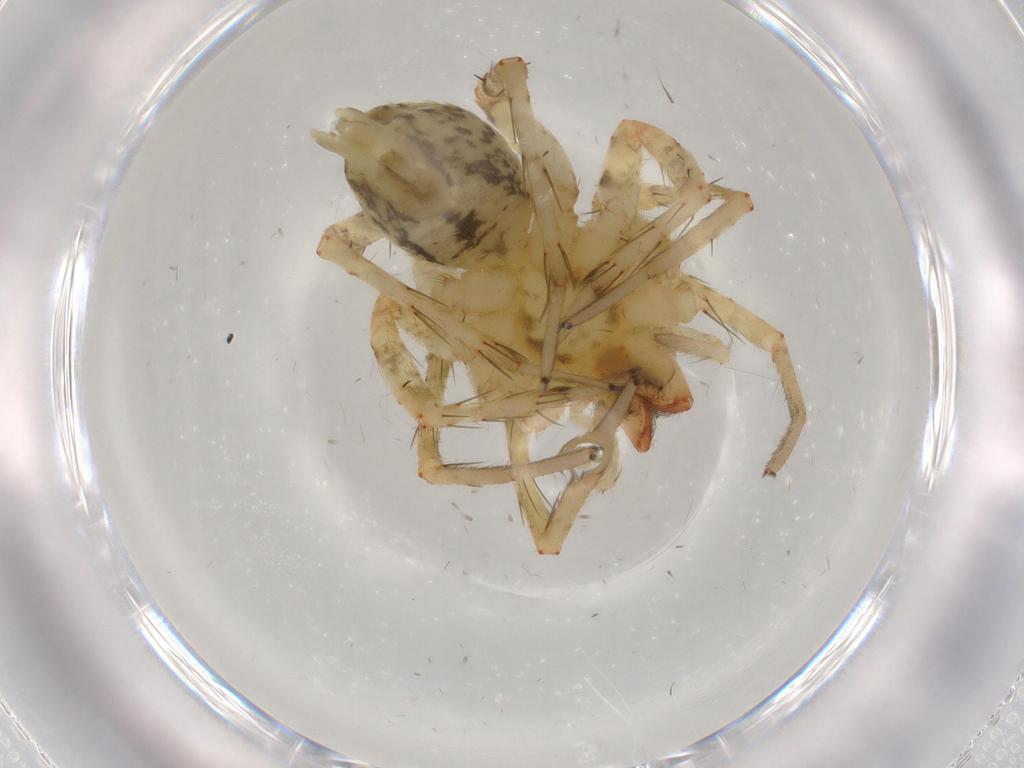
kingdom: Animalia
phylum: Arthropoda
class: Arachnida
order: Araneae
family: Anyphaenidae
